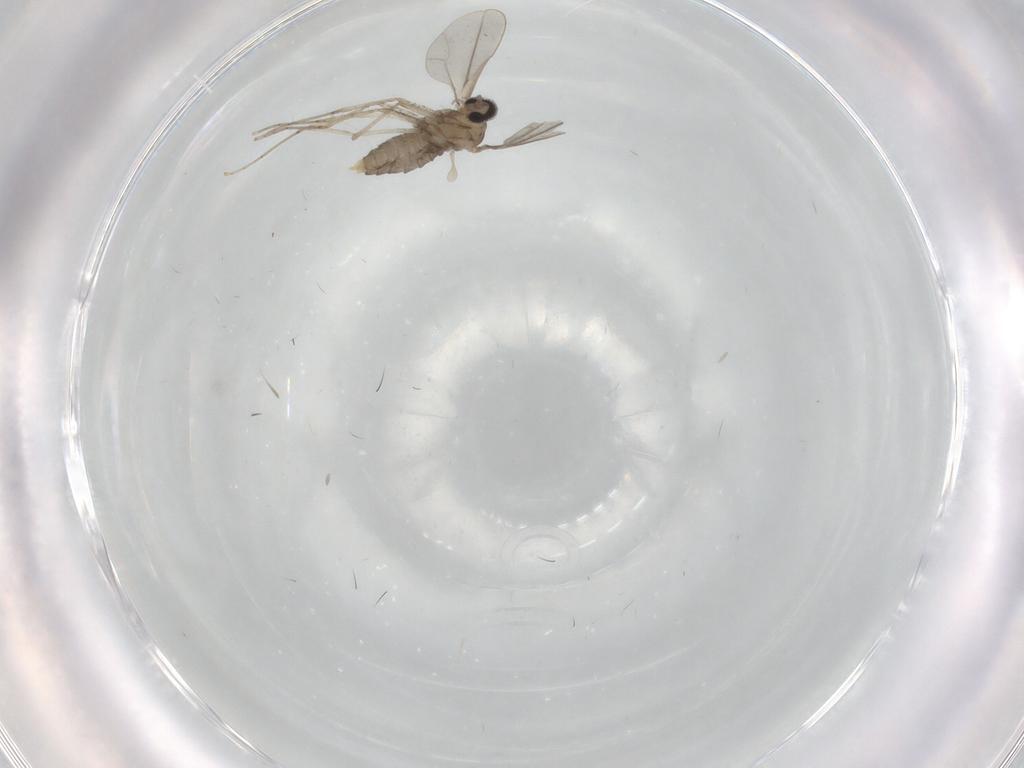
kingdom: Animalia
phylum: Arthropoda
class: Insecta
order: Diptera
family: Cecidomyiidae
